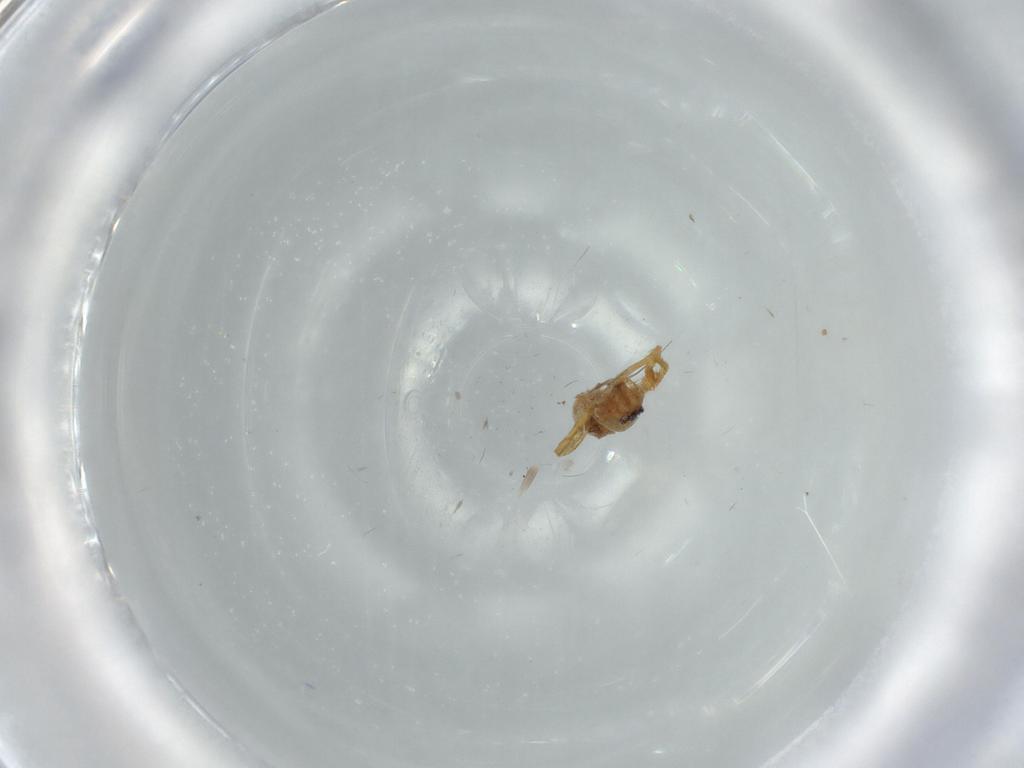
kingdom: Animalia
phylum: Arthropoda
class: Arachnida
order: Araneae
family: Oonopidae
